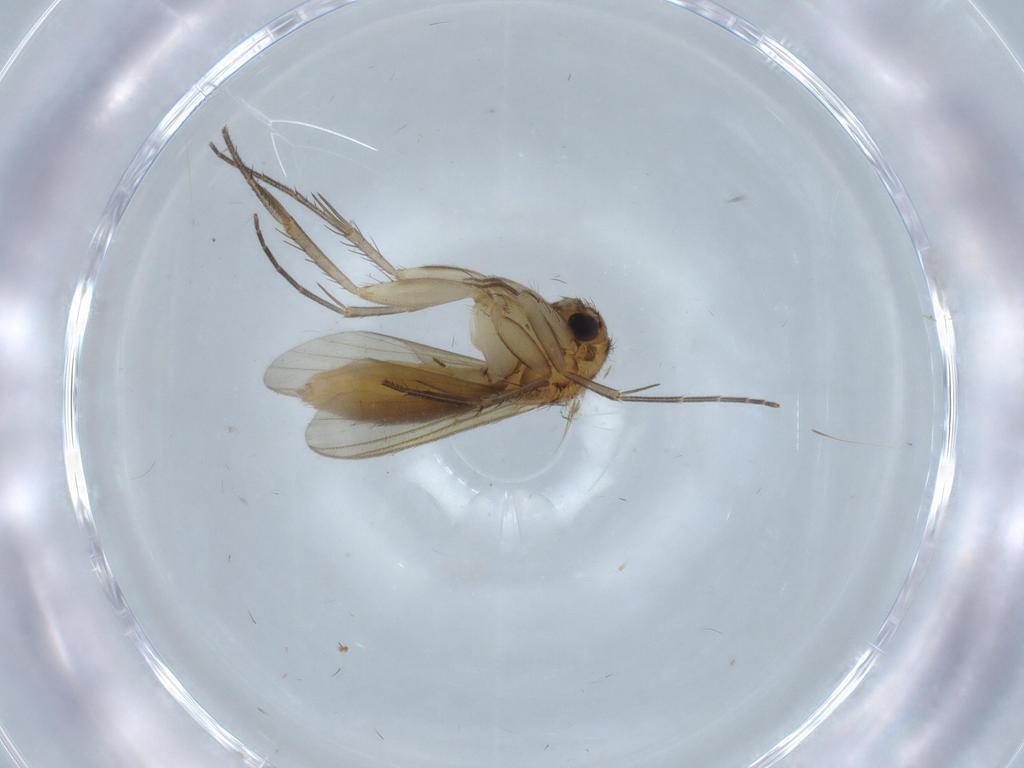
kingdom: Animalia
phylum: Arthropoda
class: Insecta
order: Diptera
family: Mycetophilidae
